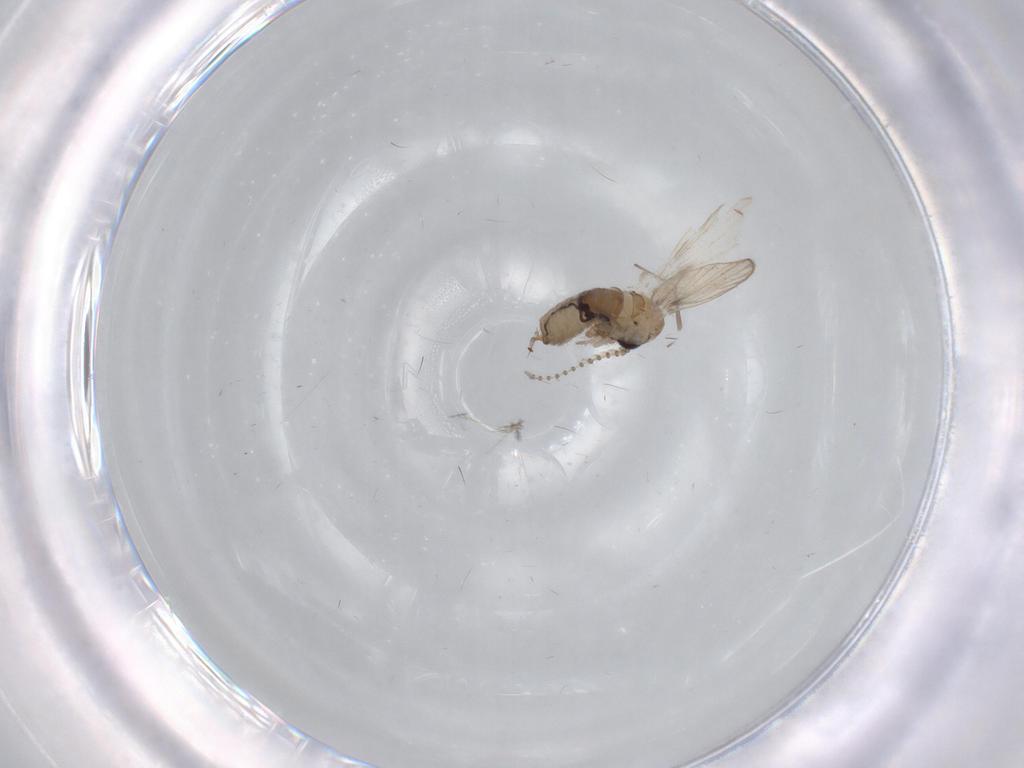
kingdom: Animalia
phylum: Arthropoda
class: Insecta
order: Diptera
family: Psychodidae
